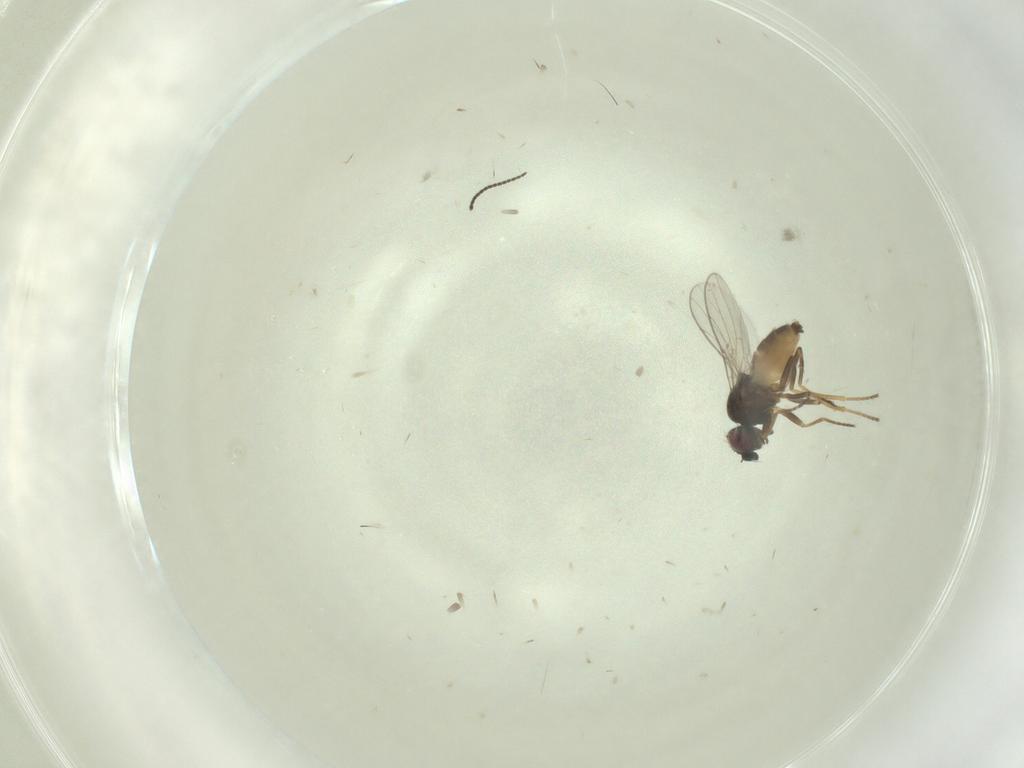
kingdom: Animalia
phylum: Arthropoda
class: Insecta
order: Diptera
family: Chloropidae
